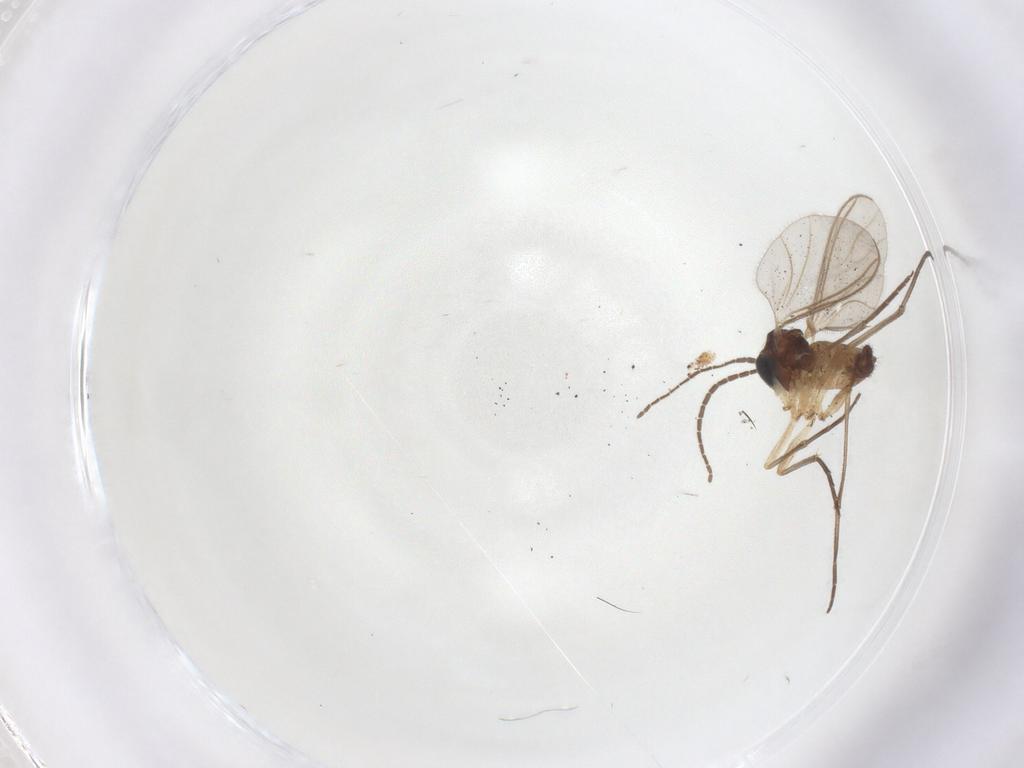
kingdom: Animalia
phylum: Arthropoda
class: Insecta
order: Diptera
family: Sciaridae
